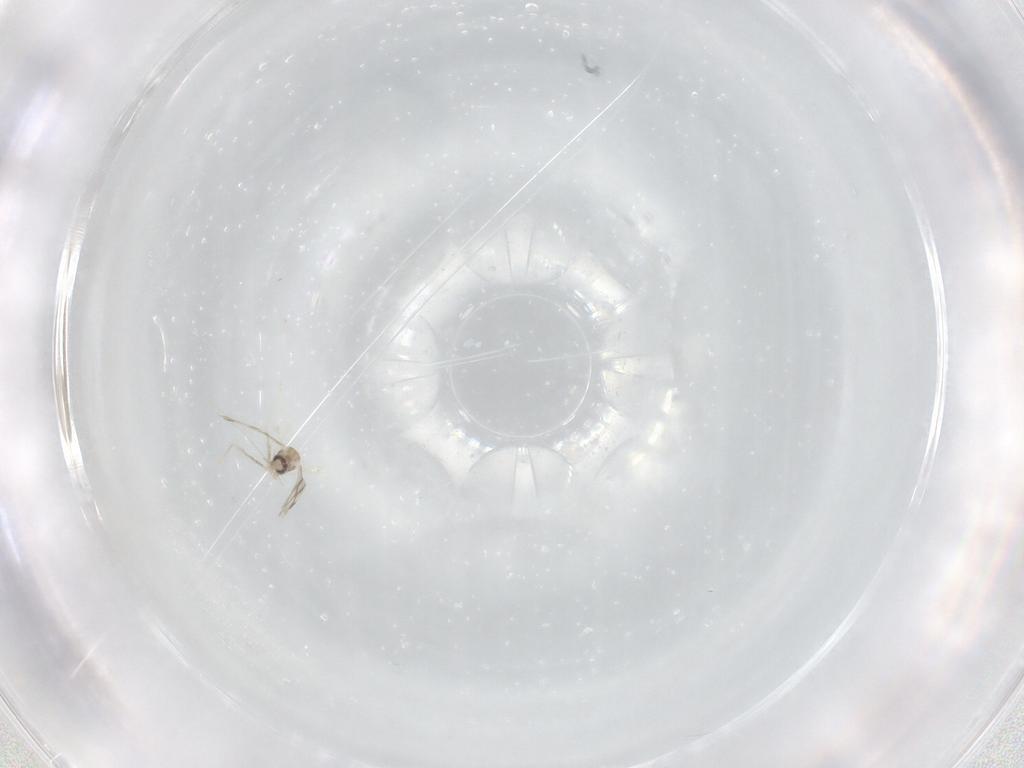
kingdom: Animalia
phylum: Arthropoda
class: Insecta
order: Diptera
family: Cecidomyiidae
